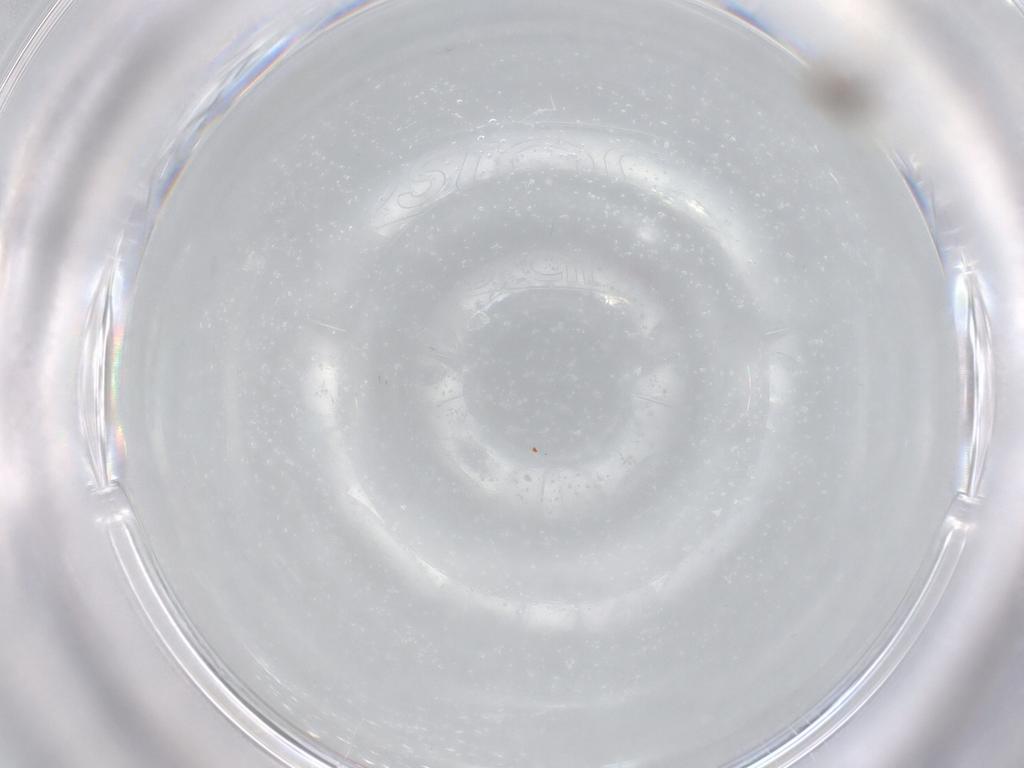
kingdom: Animalia
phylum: Arthropoda
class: Insecta
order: Diptera
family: Chironomidae
